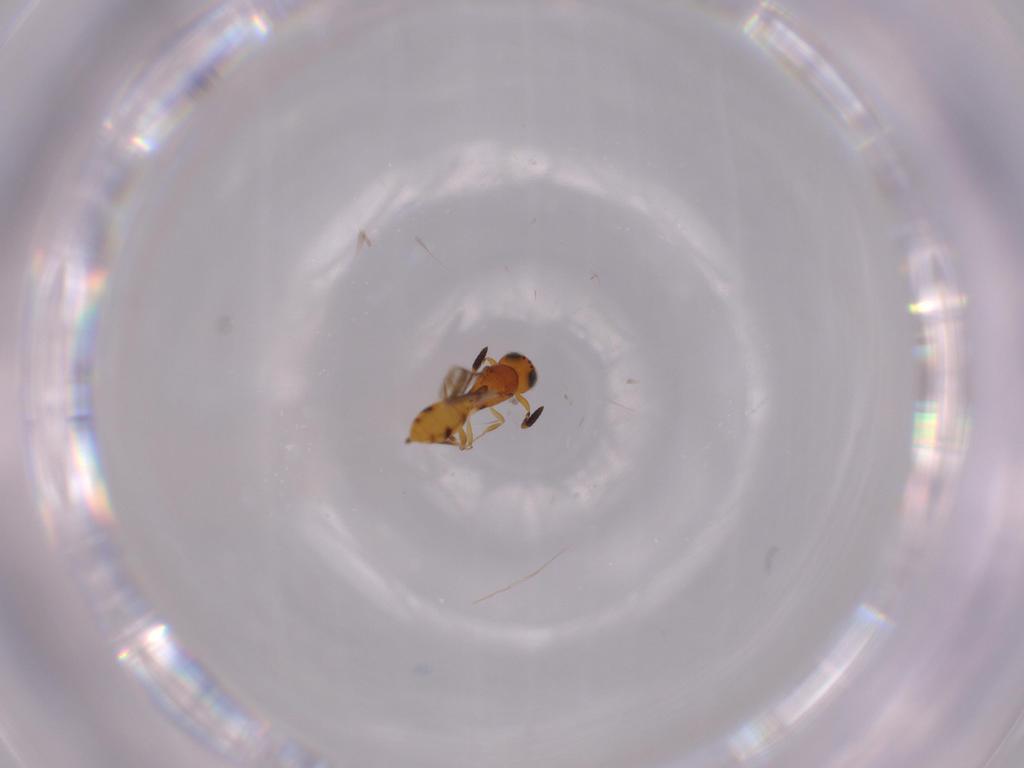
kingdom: Animalia
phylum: Arthropoda
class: Insecta
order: Hymenoptera
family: Scelionidae
